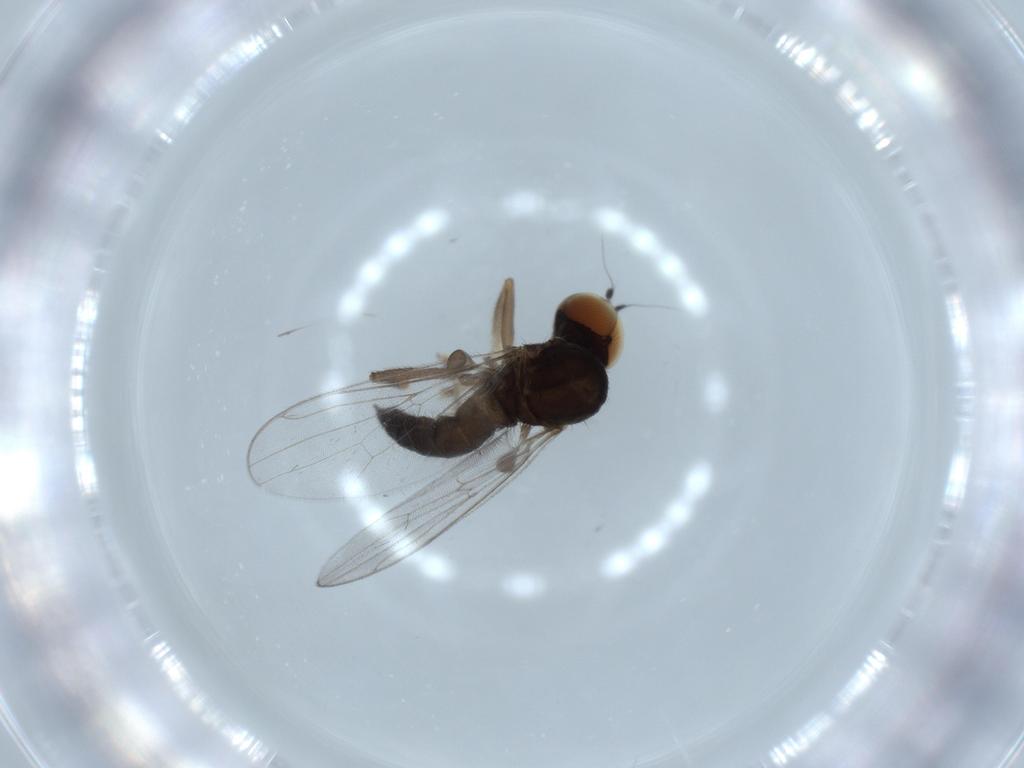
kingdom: Animalia
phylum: Arthropoda
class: Insecta
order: Diptera
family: Hybotidae
